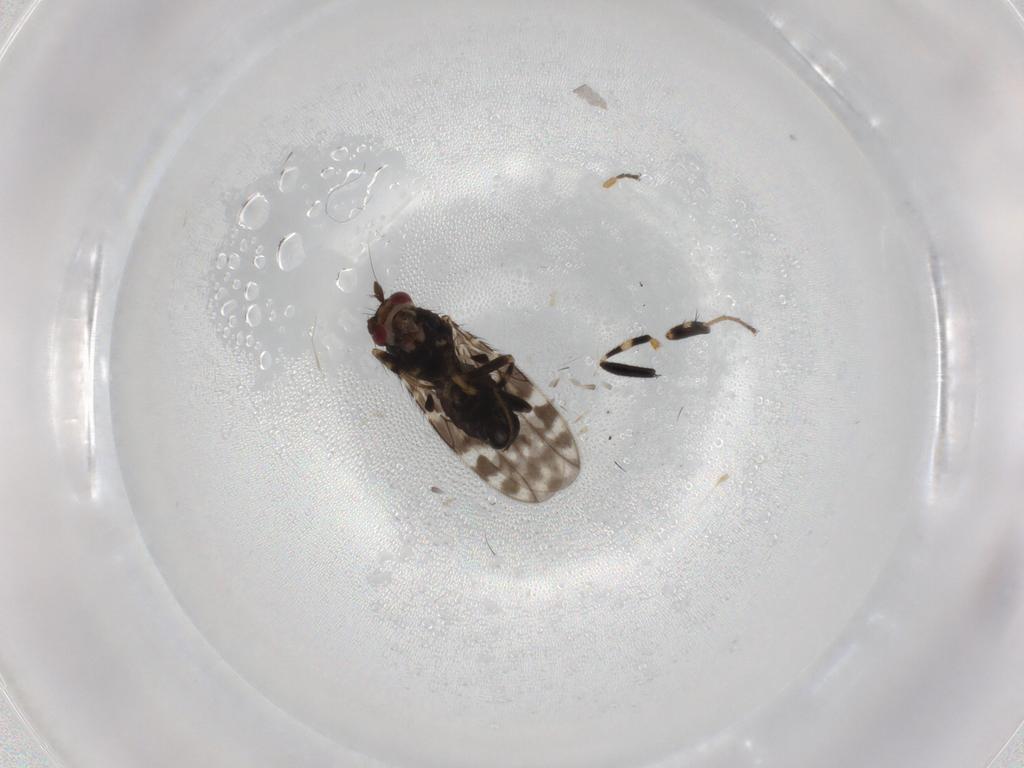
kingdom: Animalia
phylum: Arthropoda
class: Insecta
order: Diptera
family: Sphaeroceridae
